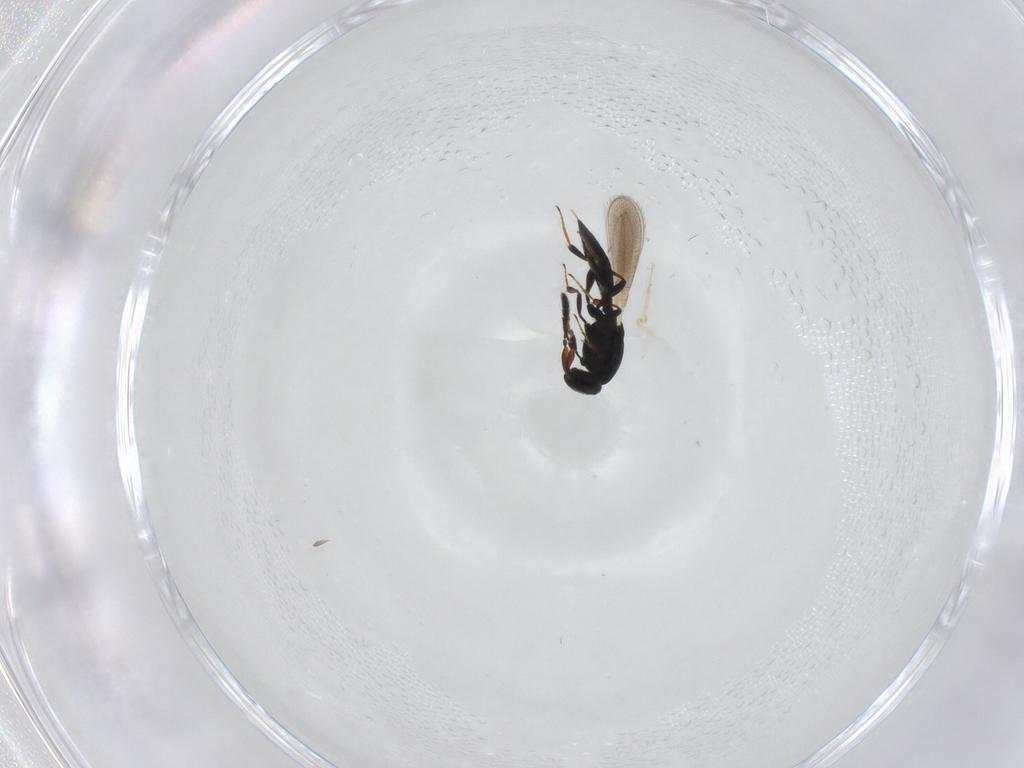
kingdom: Animalia
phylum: Arthropoda
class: Insecta
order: Hymenoptera
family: Platygastridae
